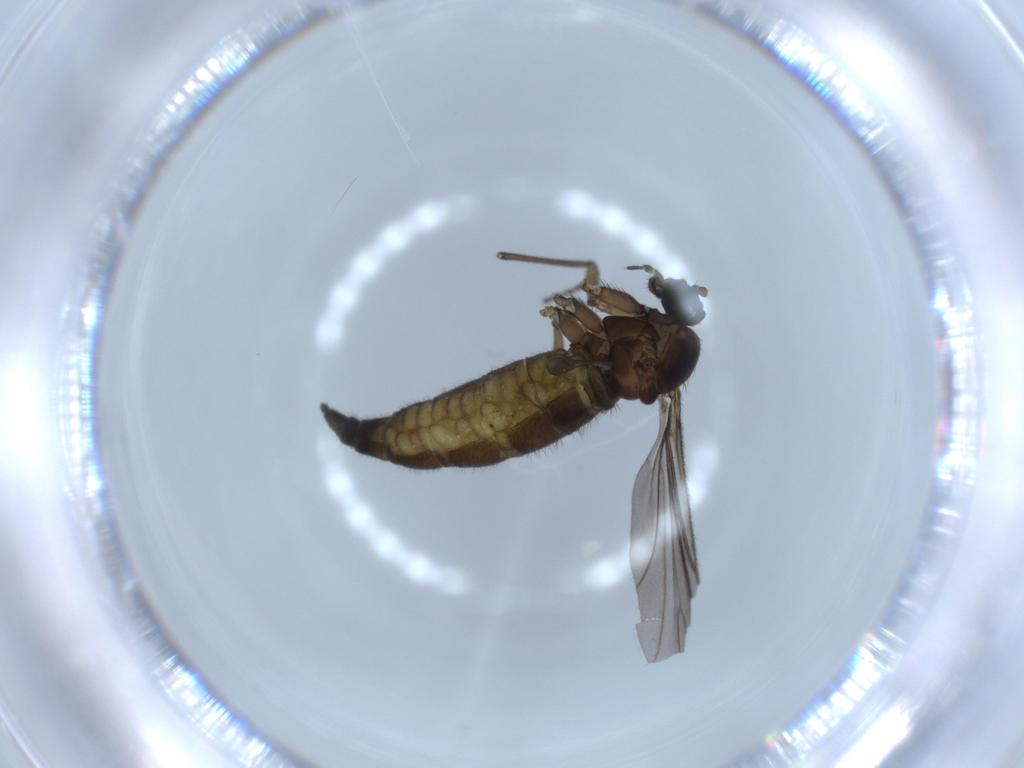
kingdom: Animalia
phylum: Arthropoda
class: Insecta
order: Diptera
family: Sciaridae
